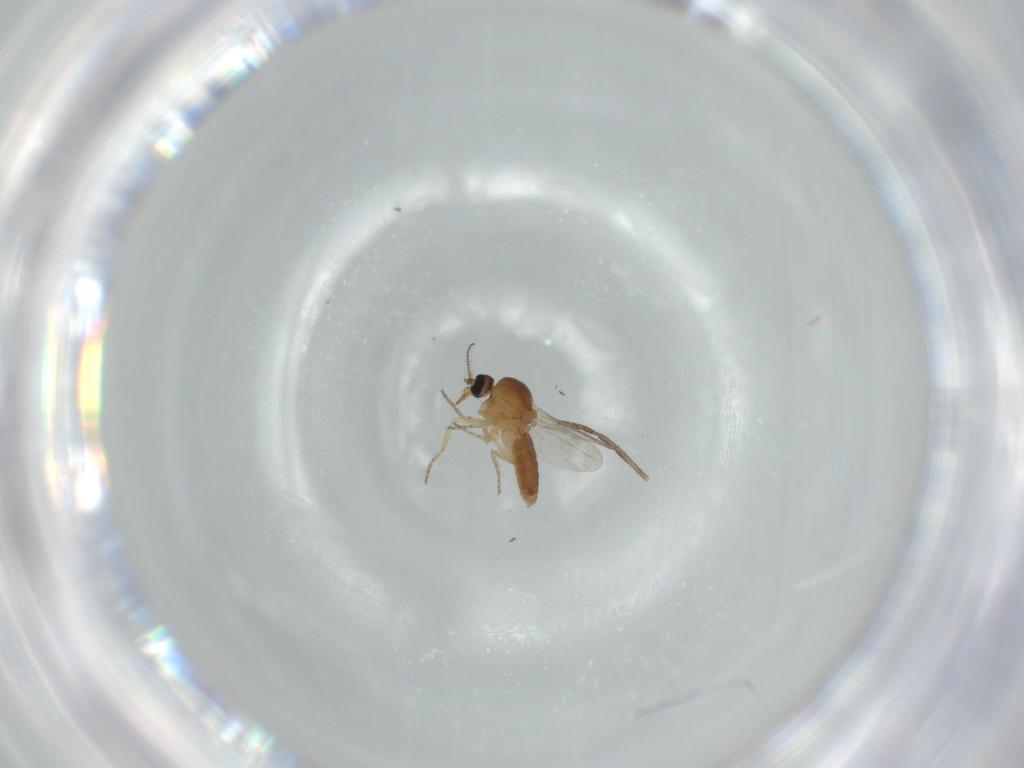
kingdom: Animalia
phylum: Arthropoda
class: Insecta
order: Diptera
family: Ceratopogonidae
